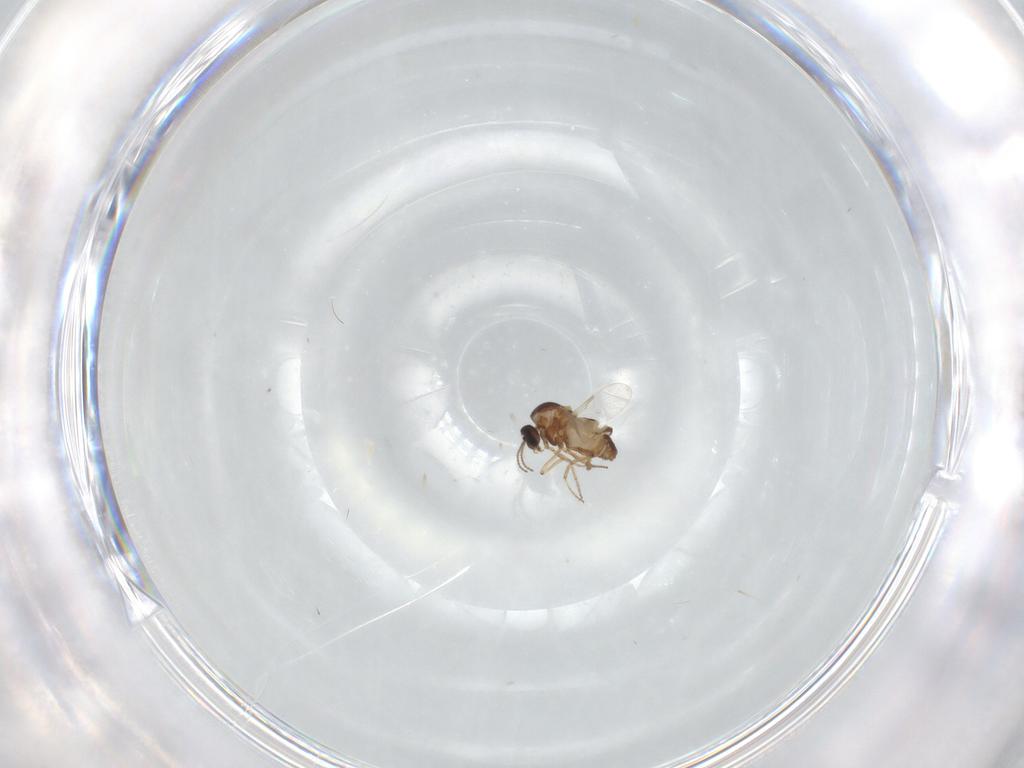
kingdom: Animalia
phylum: Arthropoda
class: Insecta
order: Diptera
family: Ceratopogonidae
